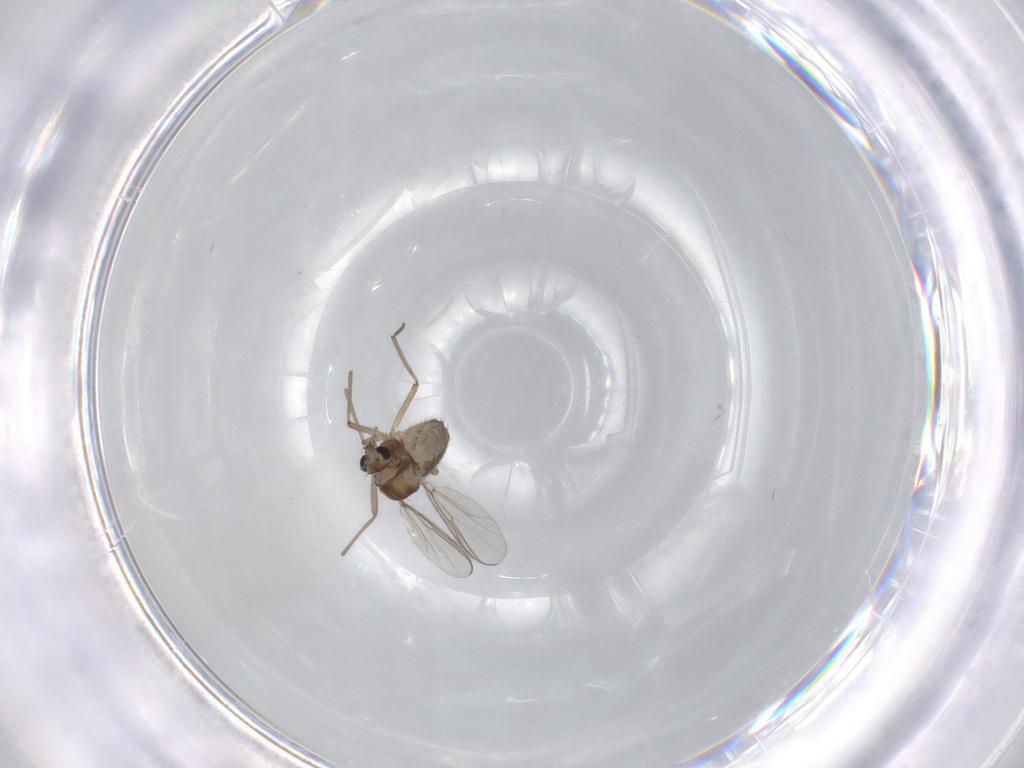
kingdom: Animalia
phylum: Arthropoda
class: Insecta
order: Diptera
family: Chironomidae
